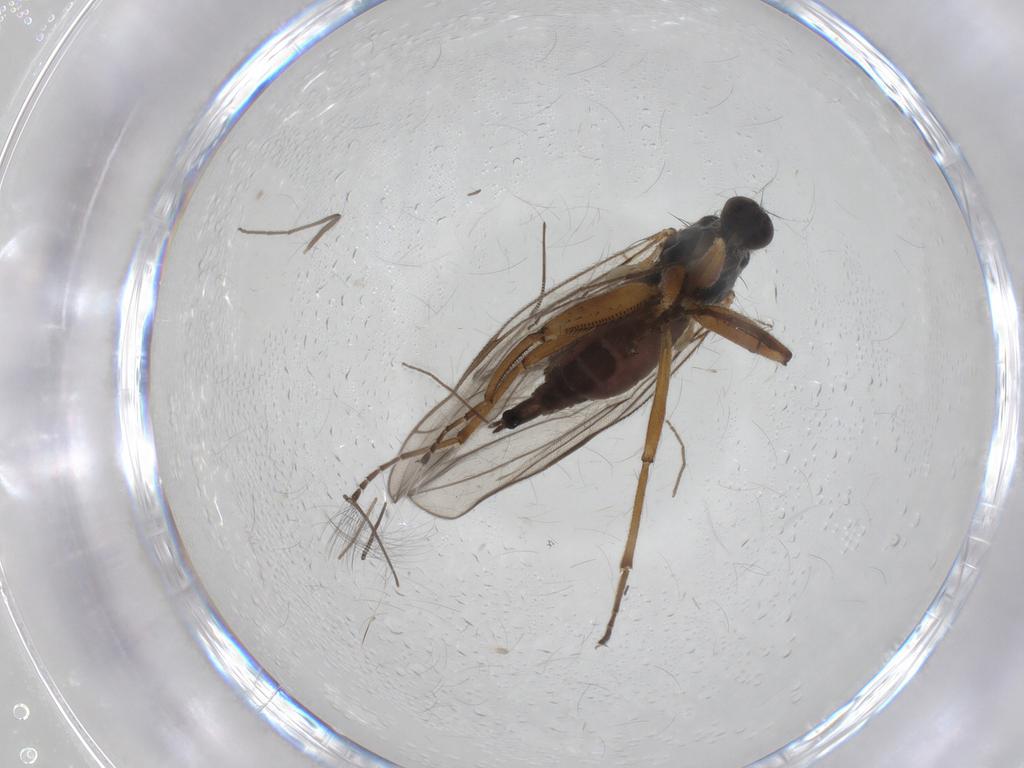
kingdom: Animalia
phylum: Arthropoda
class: Insecta
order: Diptera
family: Hybotidae
